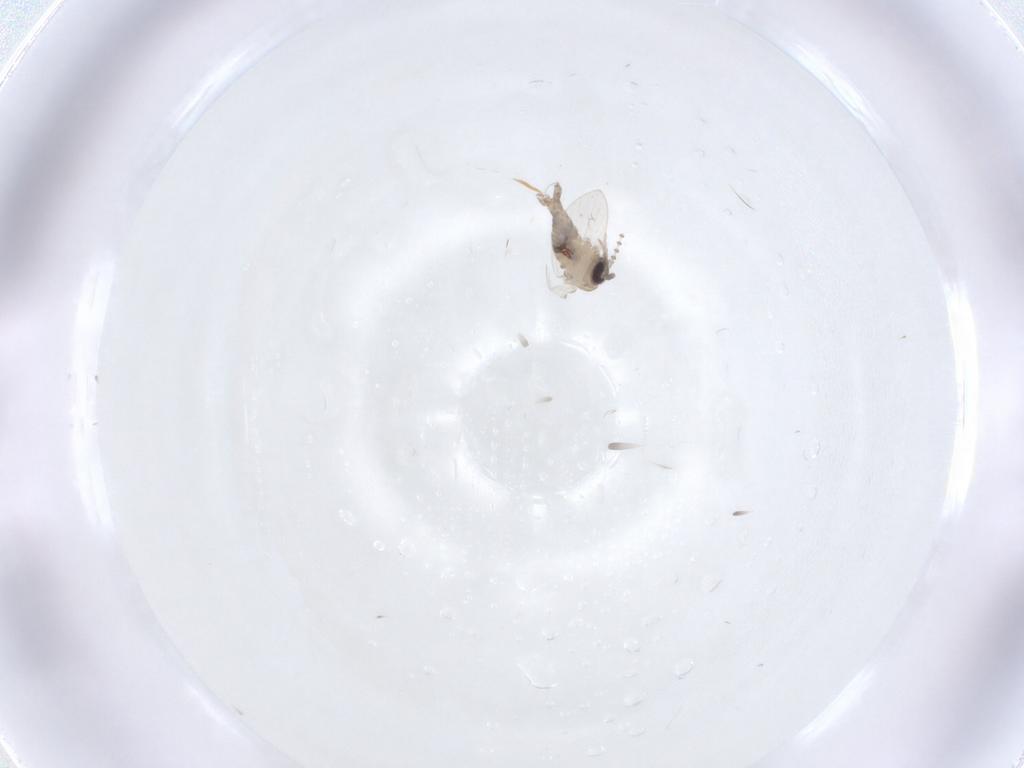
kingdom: Animalia
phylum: Arthropoda
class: Insecta
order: Diptera
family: Psychodidae
